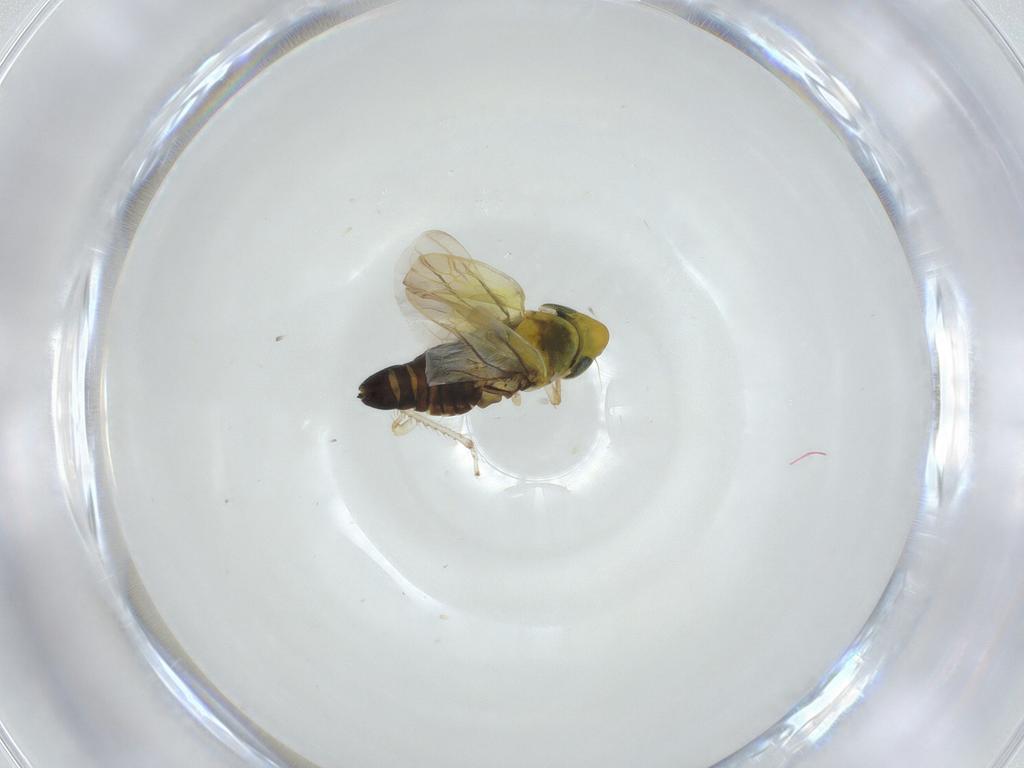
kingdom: Animalia
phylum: Arthropoda
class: Insecta
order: Hemiptera
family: Cicadellidae
